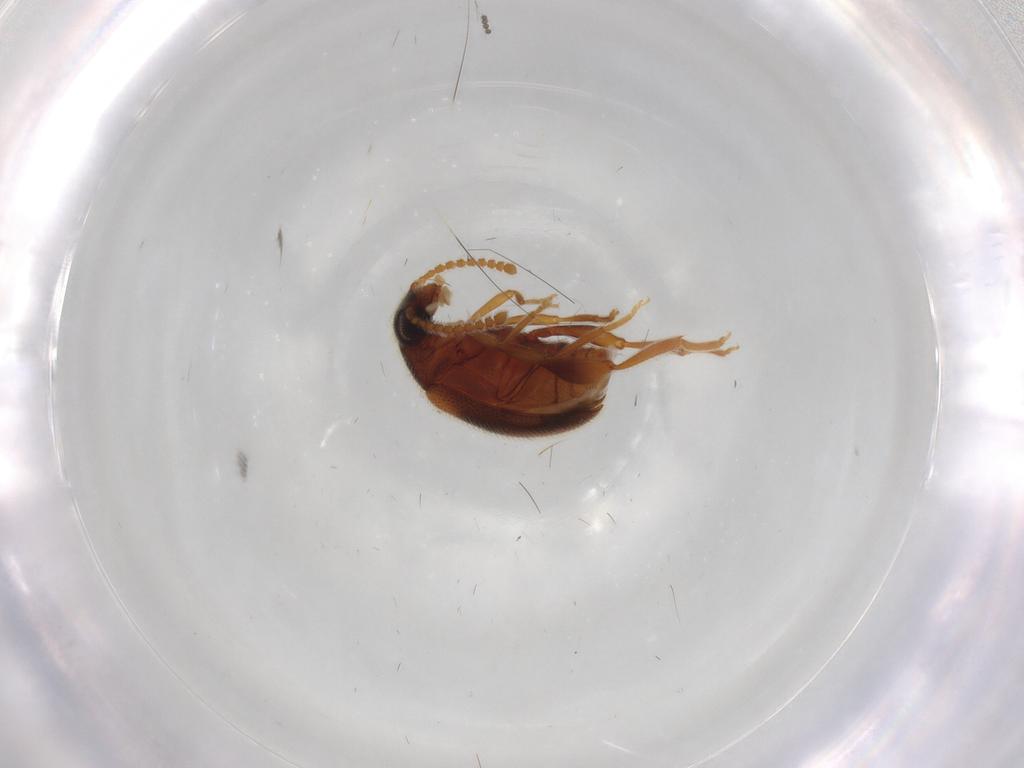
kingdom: Animalia
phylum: Arthropoda
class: Insecta
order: Coleoptera
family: Aderidae
